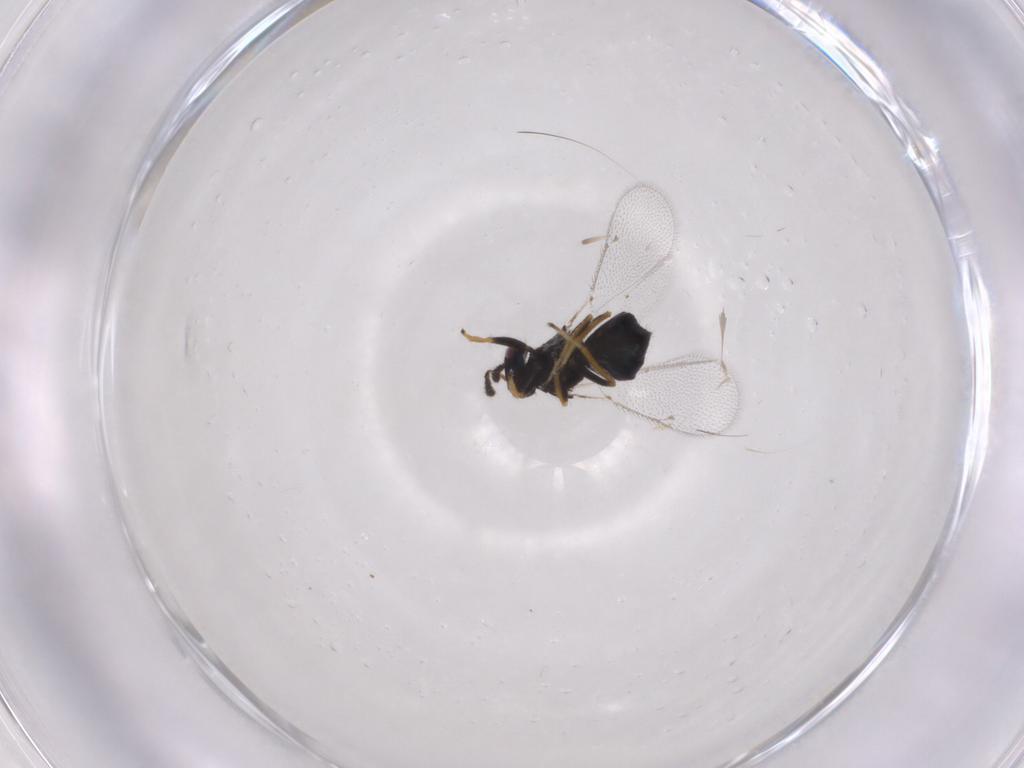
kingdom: Animalia
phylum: Arthropoda
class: Insecta
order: Hymenoptera
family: Eulophidae
